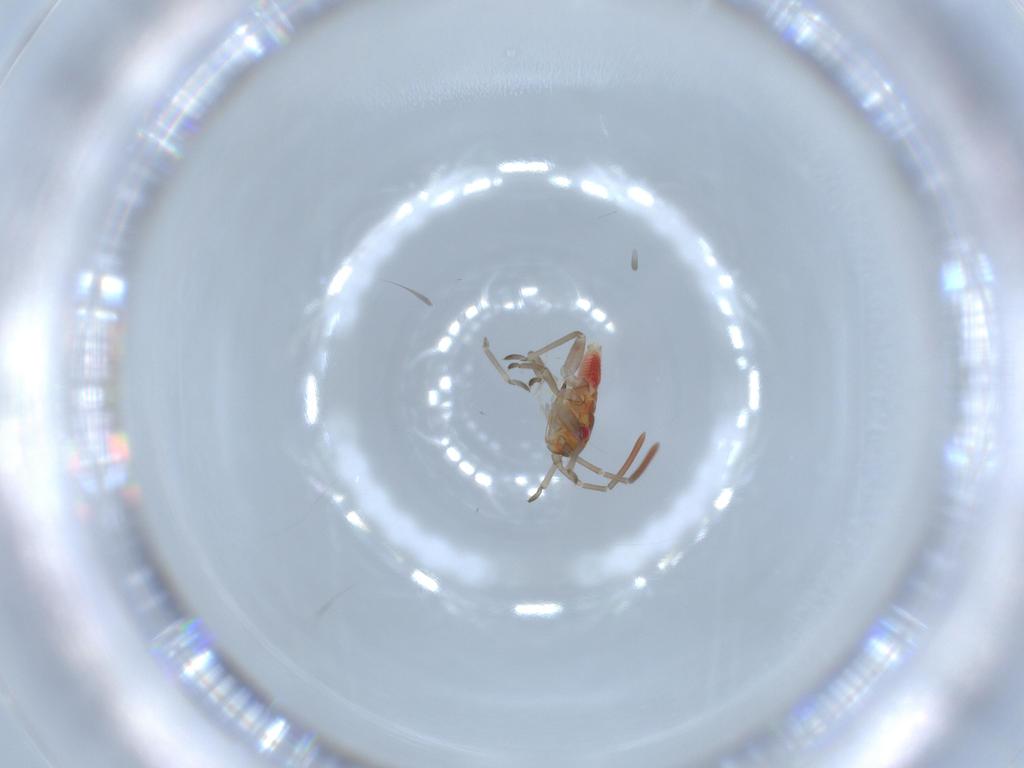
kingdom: Animalia
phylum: Arthropoda
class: Insecta
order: Hemiptera
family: Miridae
